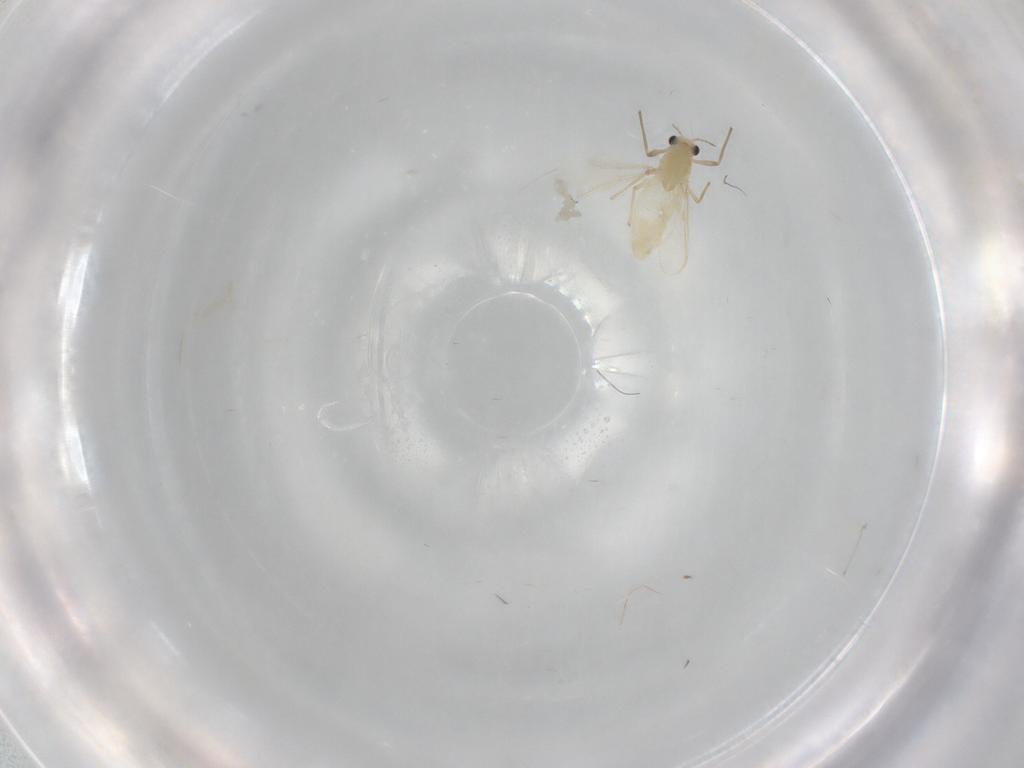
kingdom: Animalia
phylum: Arthropoda
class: Insecta
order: Diptera
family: Chironomidae
